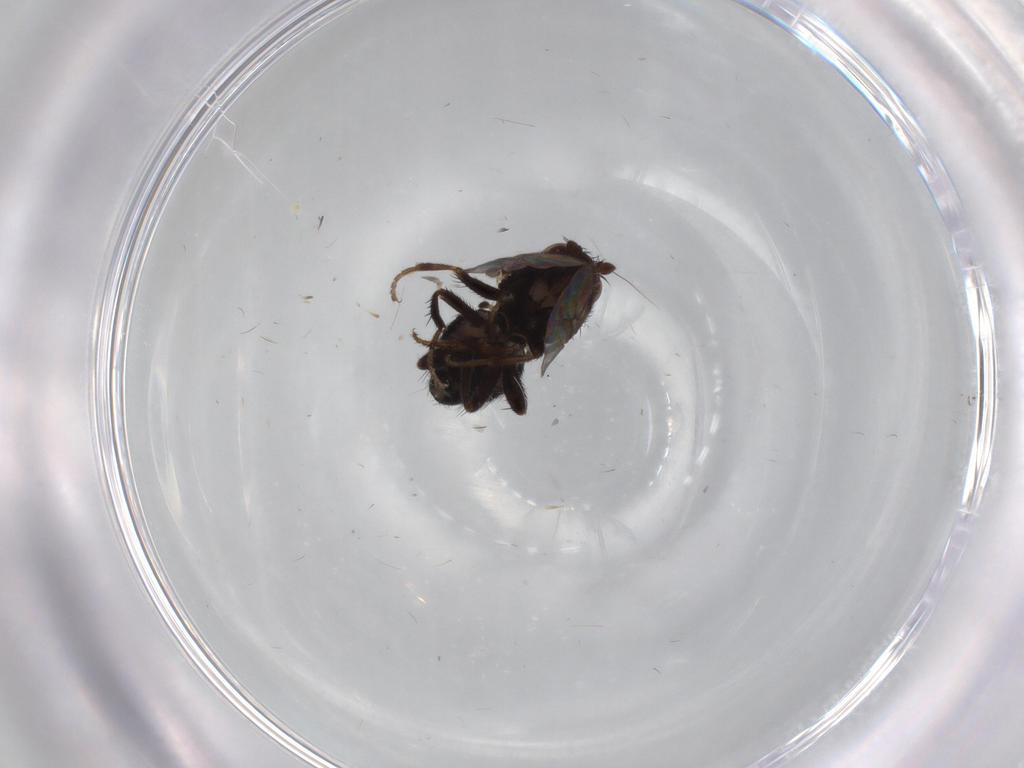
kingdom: Animalia
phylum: Arthropoda
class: Insecta
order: Diptera
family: Sphaeroceridae
